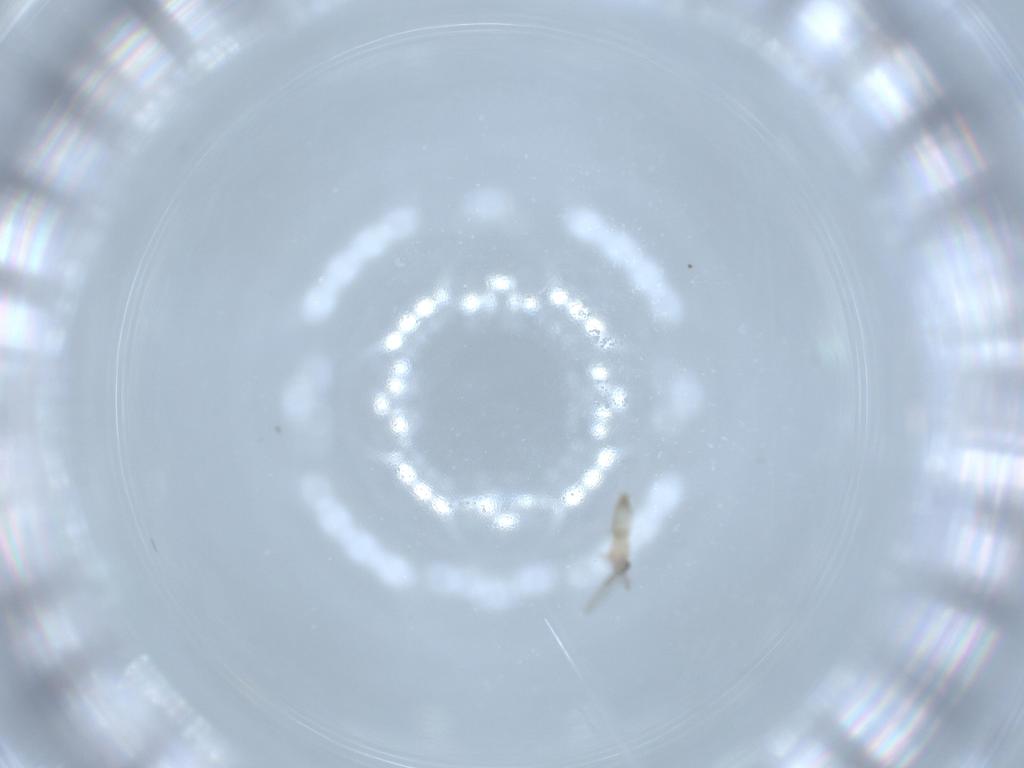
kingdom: Animalia
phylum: Arthropoda
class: Insecta
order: Diptera
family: Cecidomyiidae
